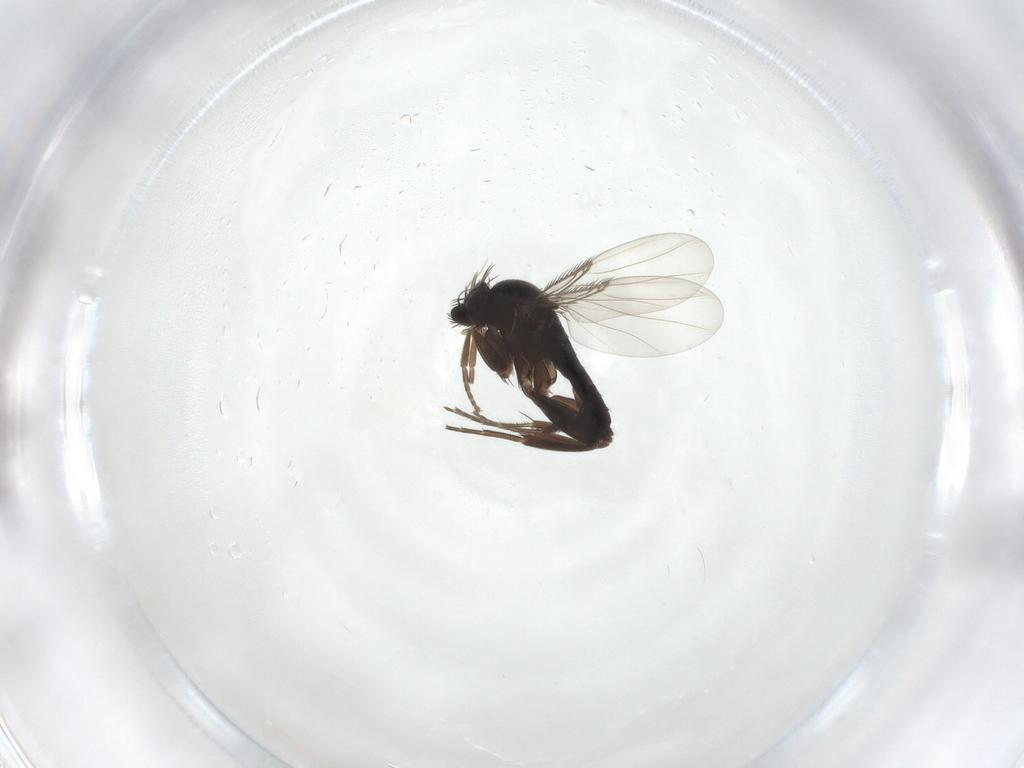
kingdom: Animalia
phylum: Arthropoda
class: Insecta
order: Diptera
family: Phoridae
